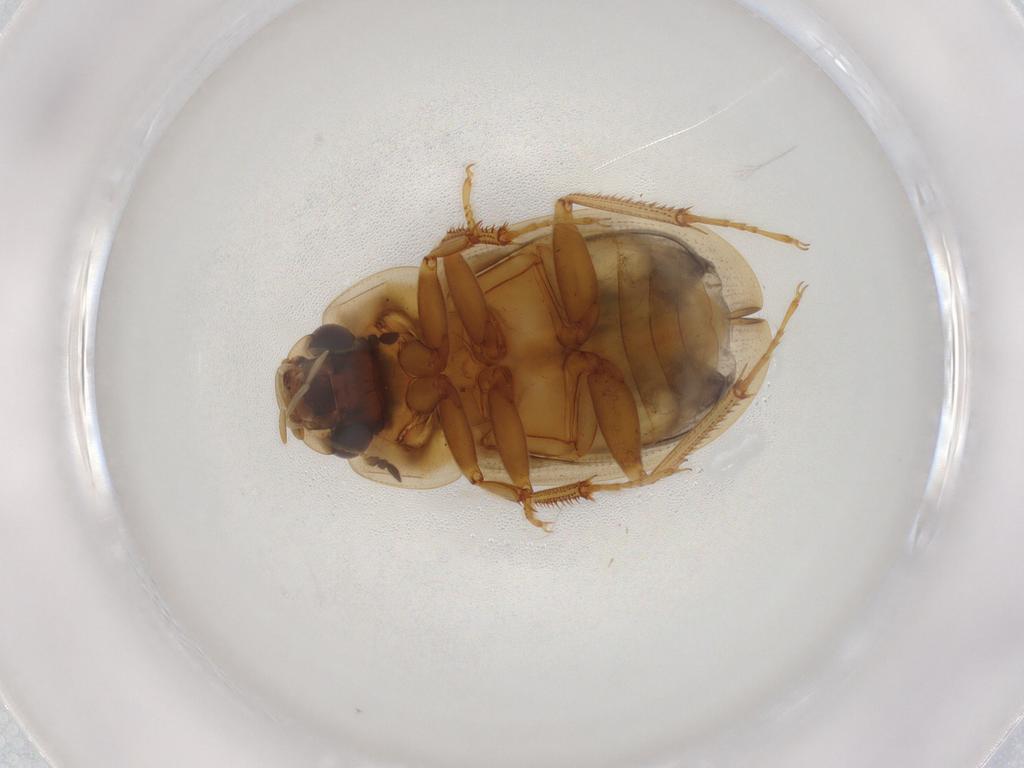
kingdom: Animalia
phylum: Arthropoda
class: Insecta
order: Coleoptera
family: Hydrophilidae
